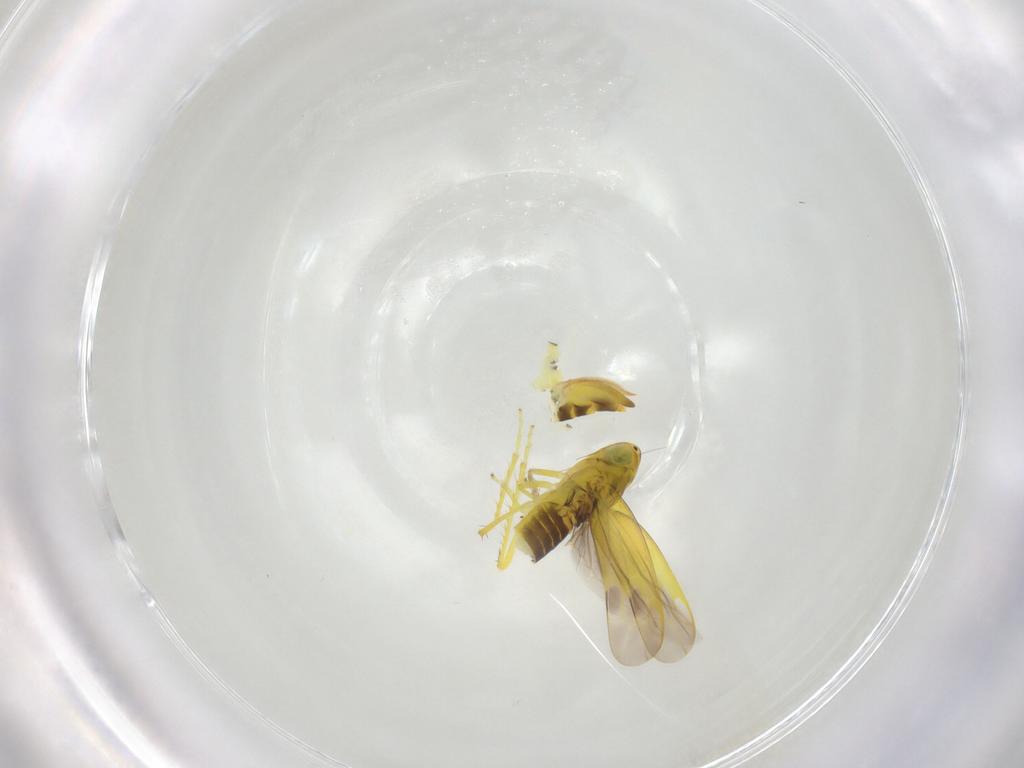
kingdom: Animalia
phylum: Arthropoda
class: Insecta
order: Hemiptera
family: Cicadellidae
